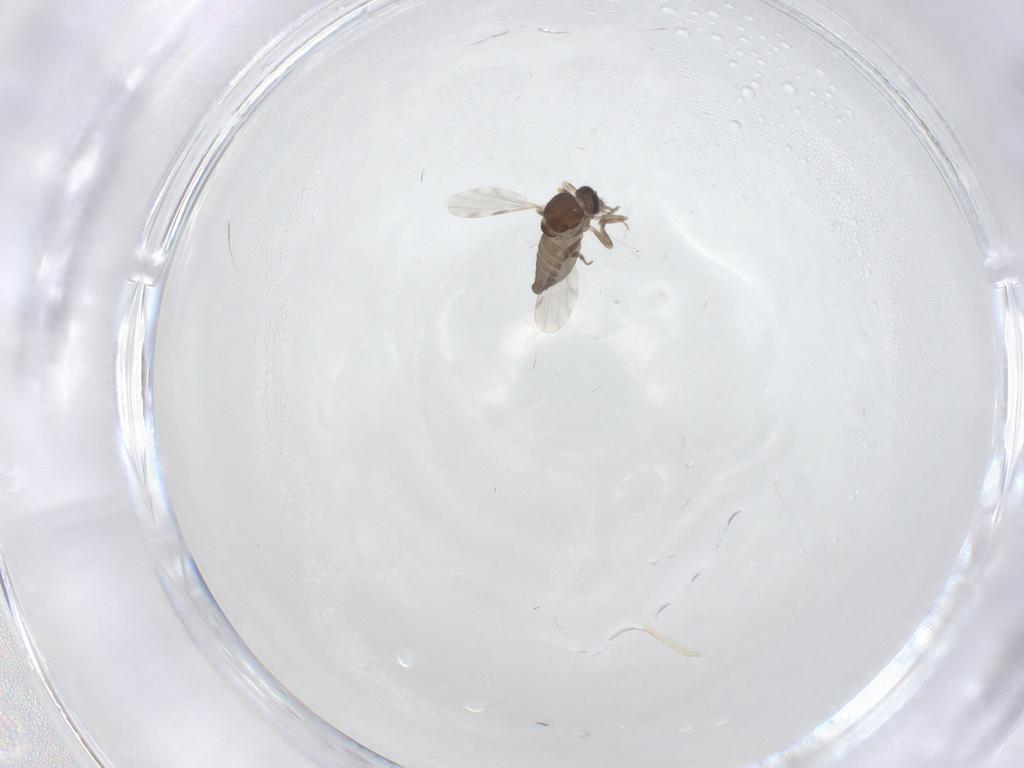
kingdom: Animalia
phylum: Arthropoda
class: Insecta
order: Diptera
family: Ceratopogonidae
